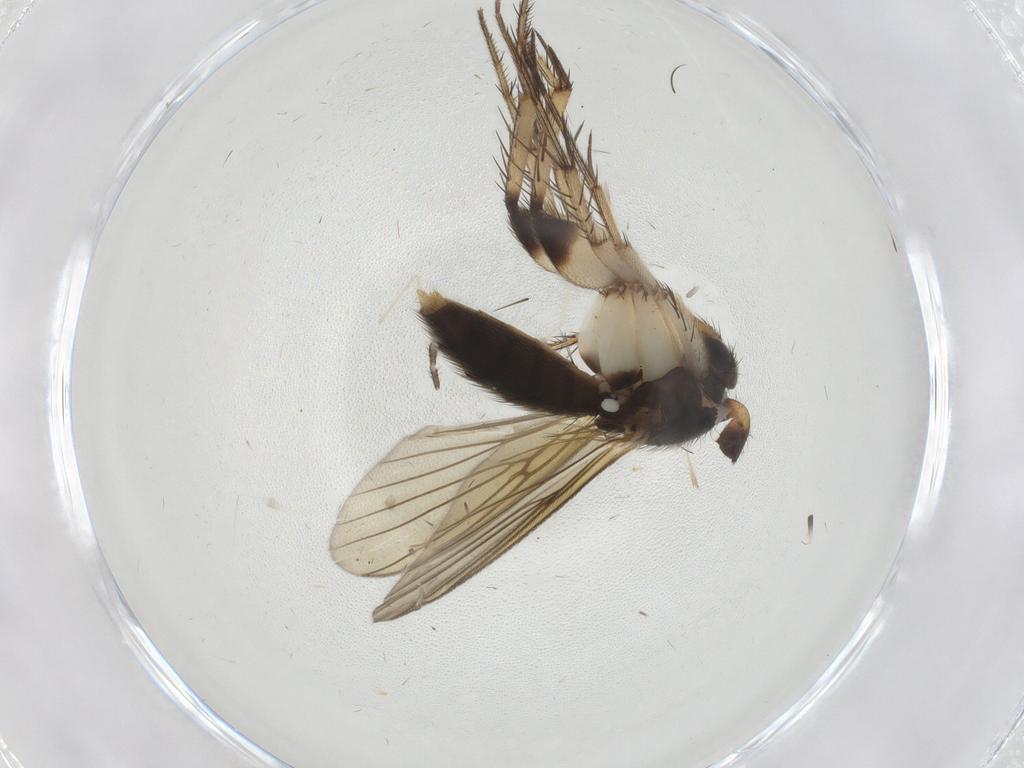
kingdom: Animalia
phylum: Arthropoda
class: Insecta
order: Diptera
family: Mycetophilidae
